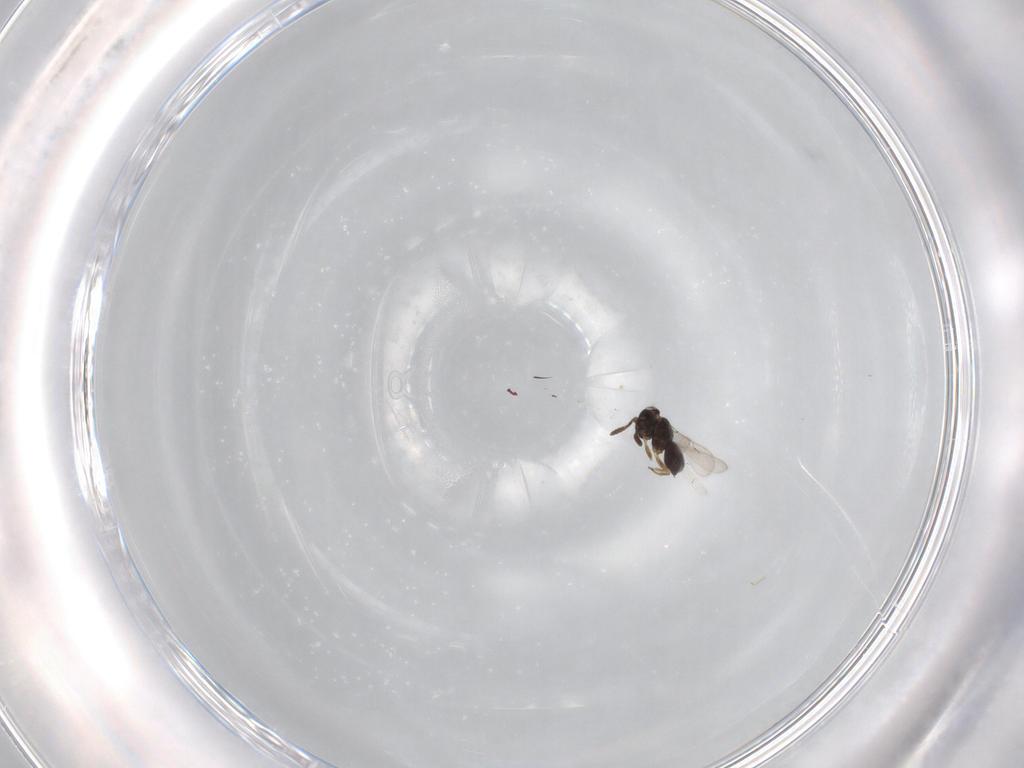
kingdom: Animalia
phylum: Arthropoda
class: Insecta
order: Hymenoptera
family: Scelionidae
